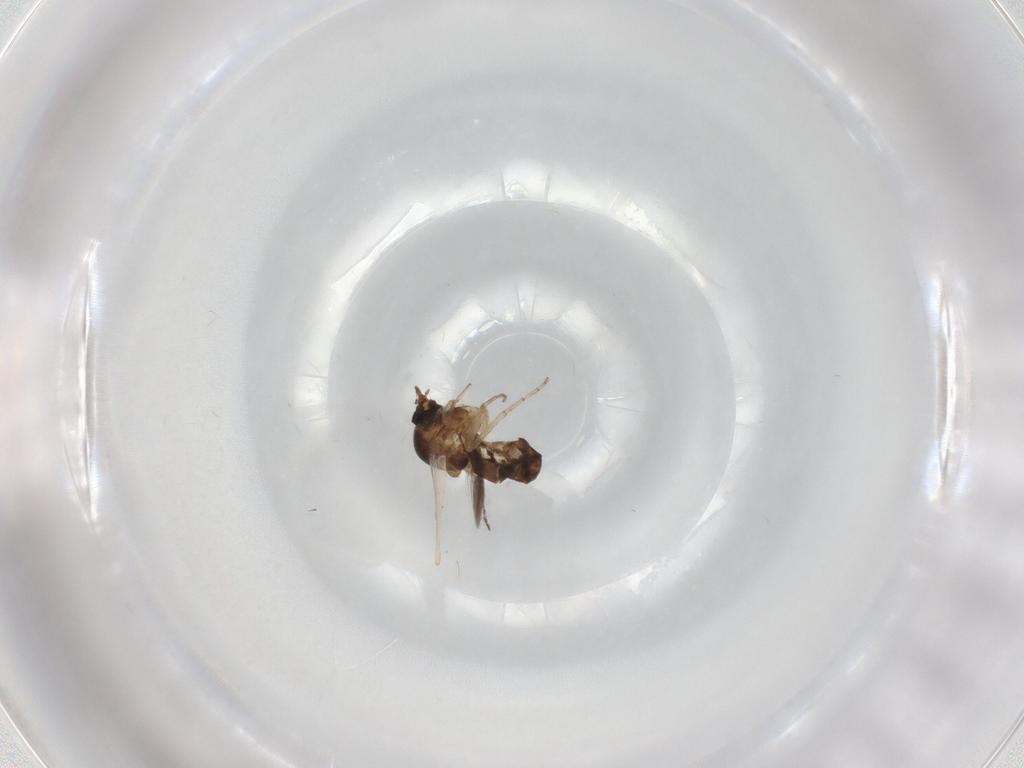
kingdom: Animalia
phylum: Arthropoda
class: Insecta
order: Diptera
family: Ceratopogonidae
